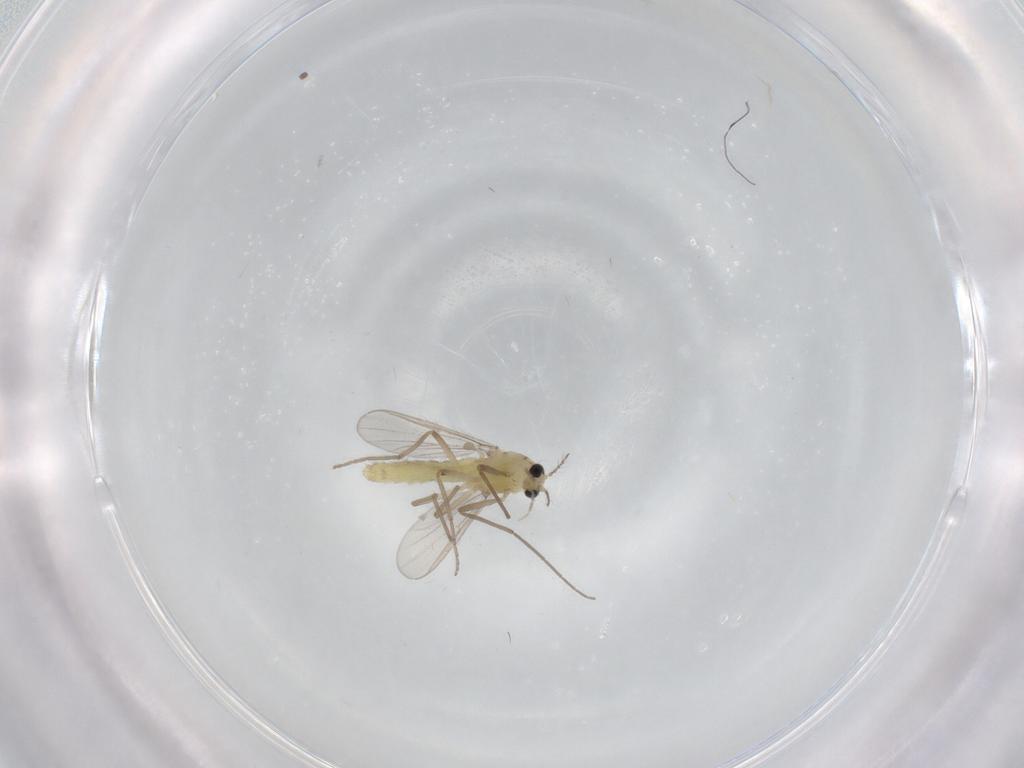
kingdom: Animalia
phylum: Arthropoda
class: Insecta
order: Diptera
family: Chironomidae
